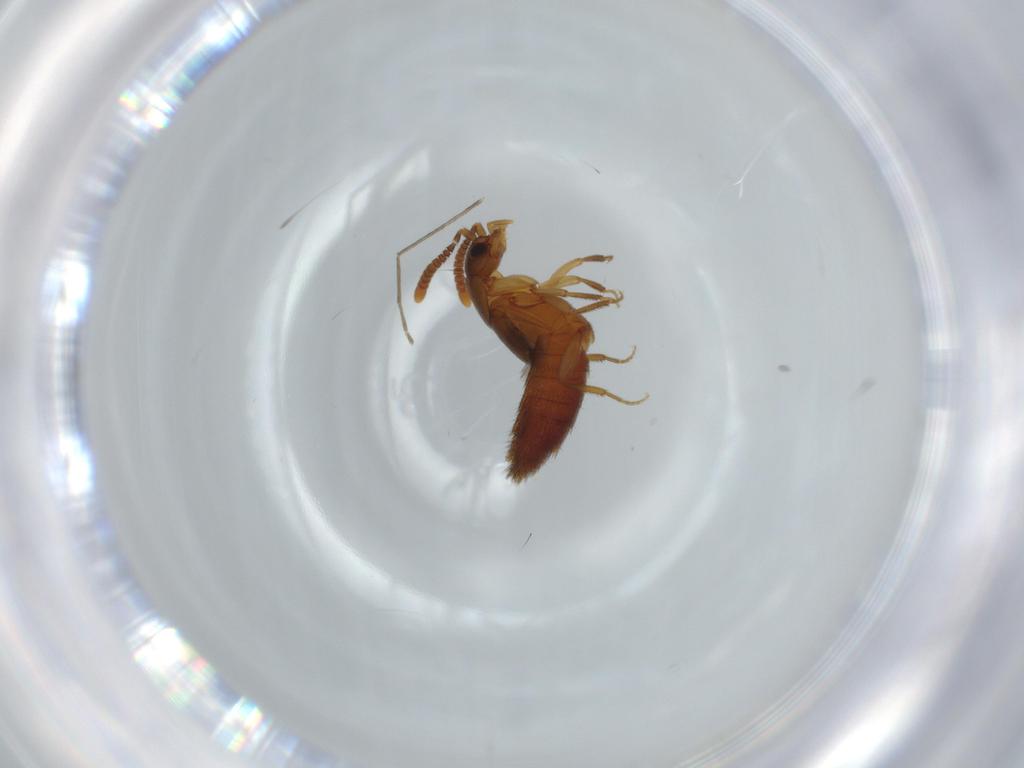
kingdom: Animalia
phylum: Arthropoda
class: Insecta
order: Coleoptera
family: Staphylinidae
